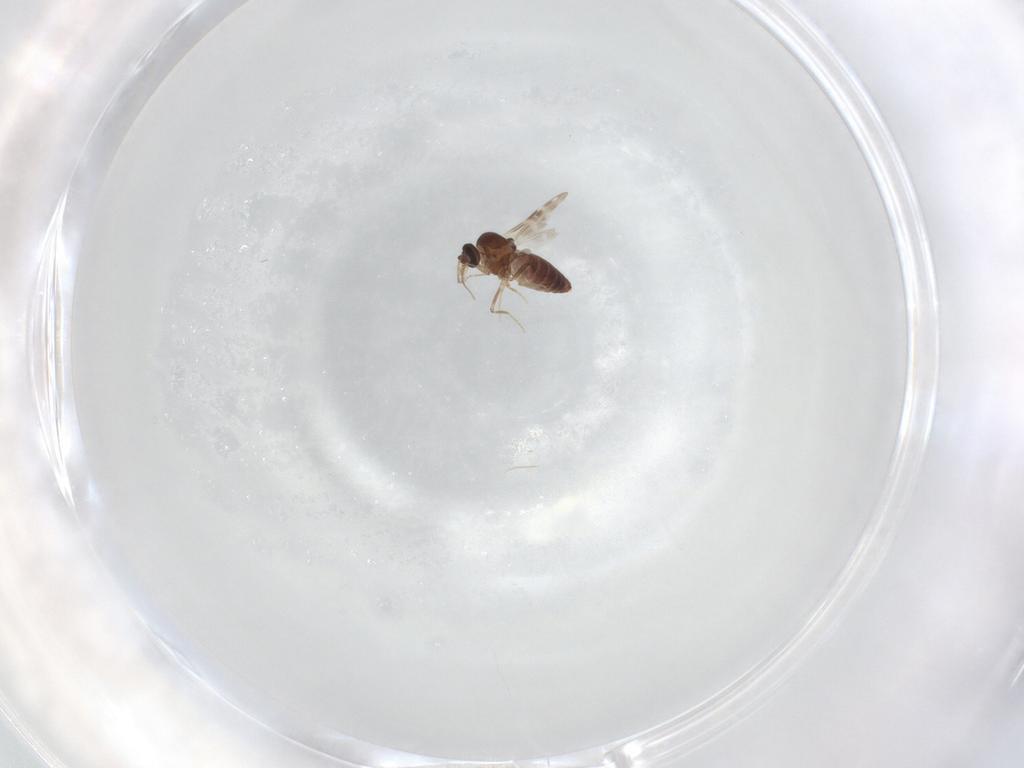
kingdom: Animalia
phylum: Arthropoda
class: Insecta
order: Diptera
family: Ceratopogonidae
